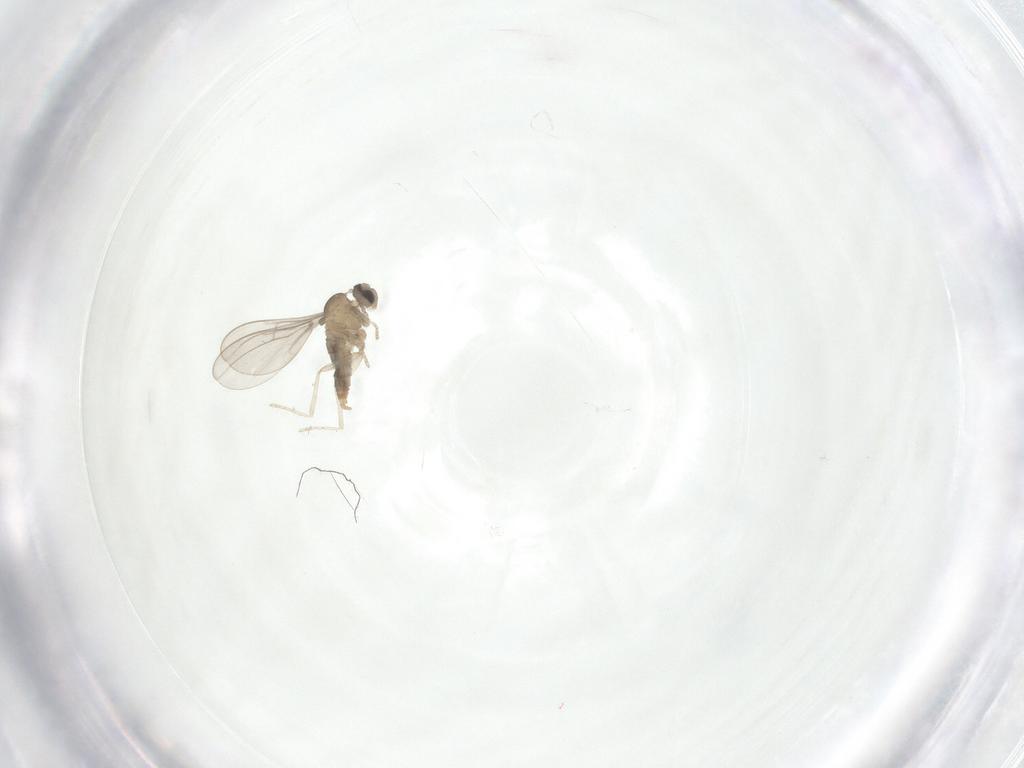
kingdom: Animalia
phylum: Arthropoda
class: Insecta
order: Diptera
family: Cecidomyiidae
